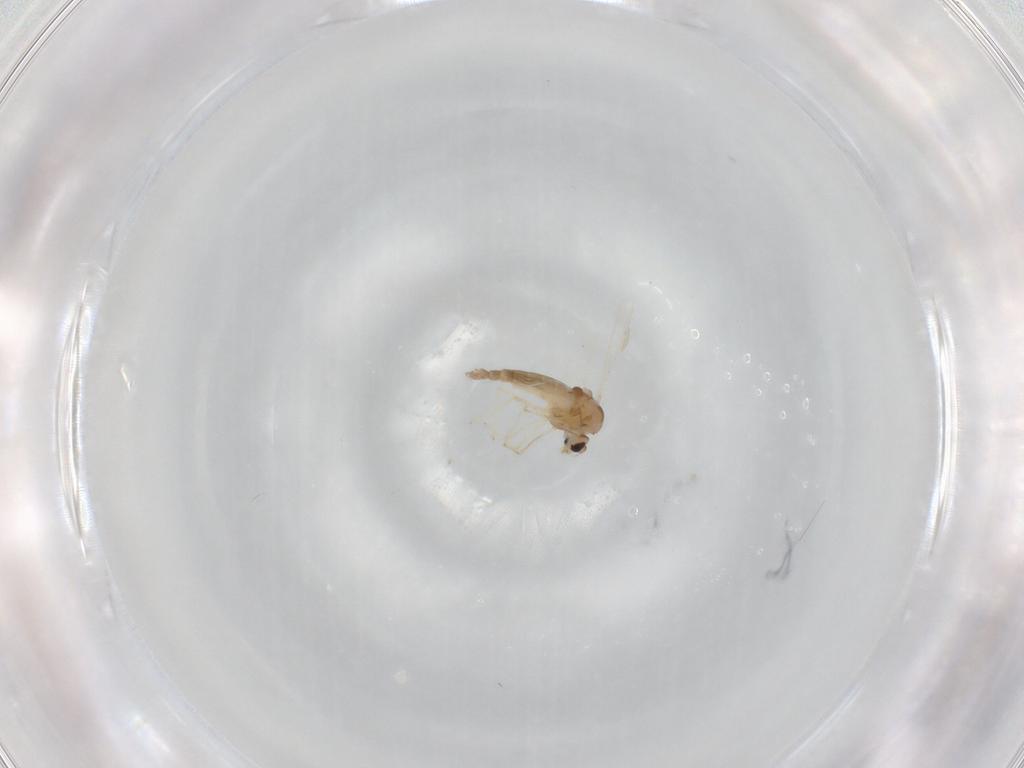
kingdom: Animalia
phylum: Arthropoda
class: Insecta
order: Diptera
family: Chironomidae
